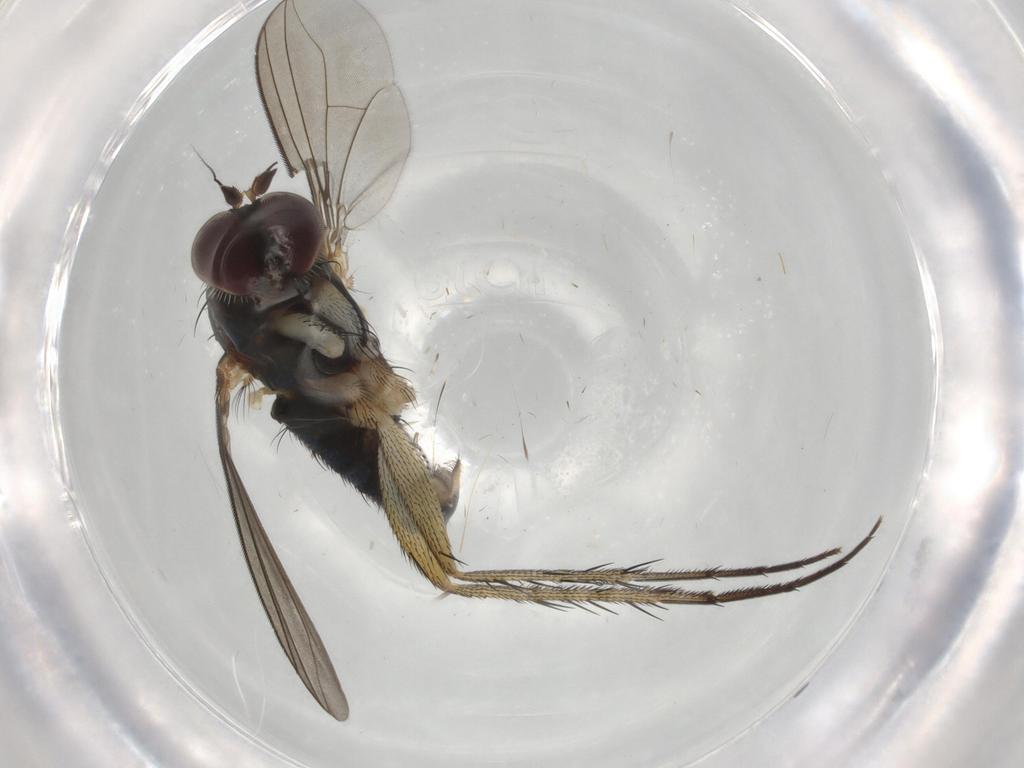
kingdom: Animalia
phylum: Arthropoda
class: Insecta
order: Diptera
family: Dolichopodidae
